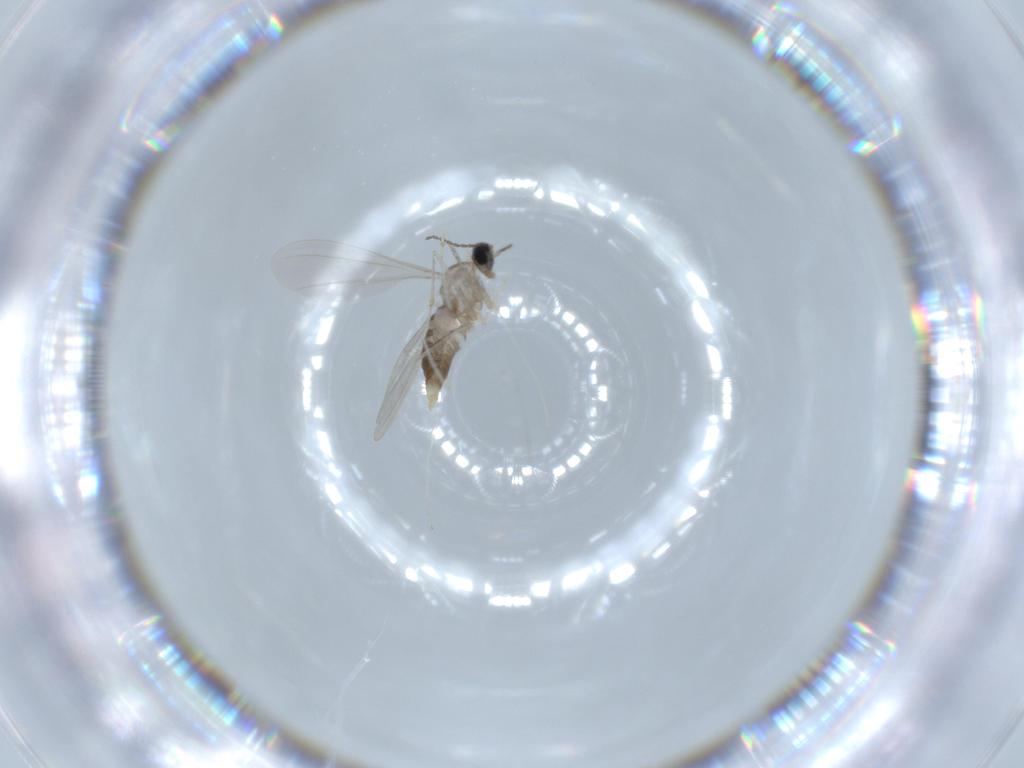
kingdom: Animalia
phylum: Arthropoda
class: Insecta
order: Diptera
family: Cecidomyiidae
